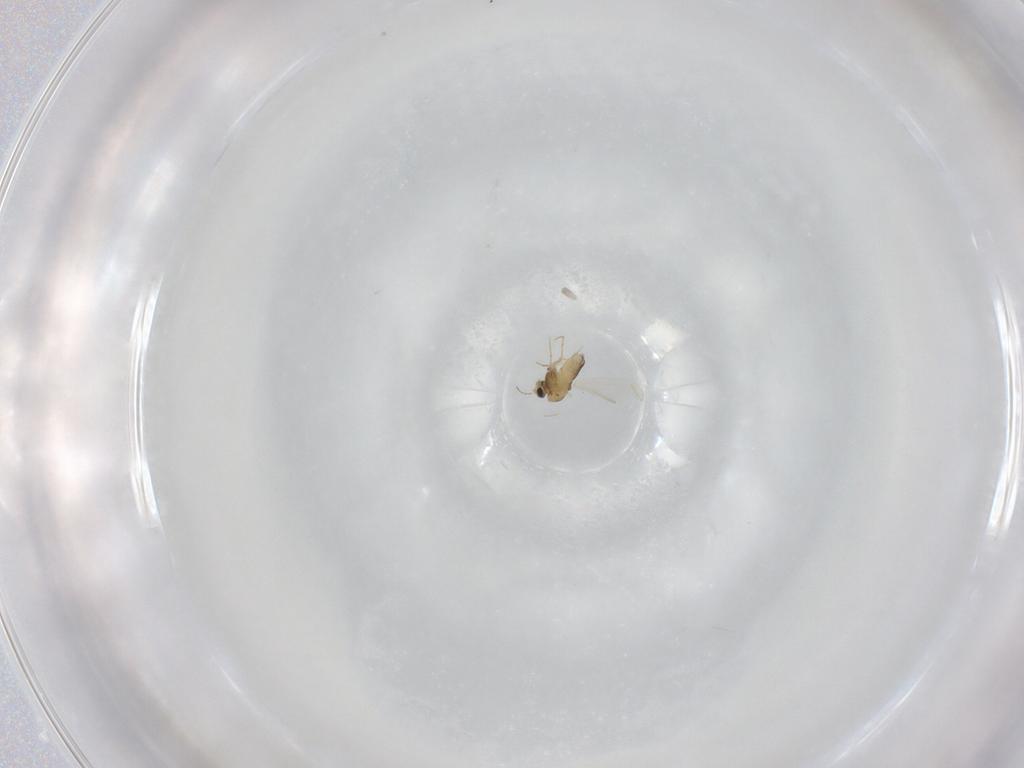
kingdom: Animalia
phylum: Arthropoda
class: Insecta
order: Diptera
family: Chironomidae
